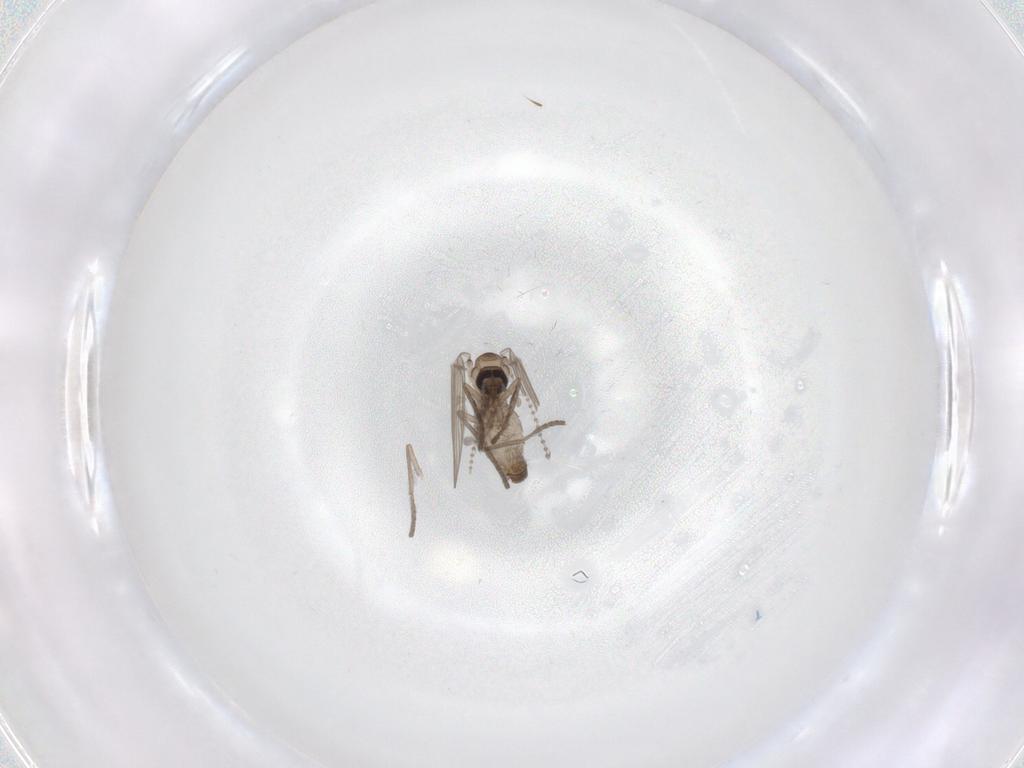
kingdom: Animalia
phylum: Arthropoda
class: Insecta
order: Diptera
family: Psychodidae
